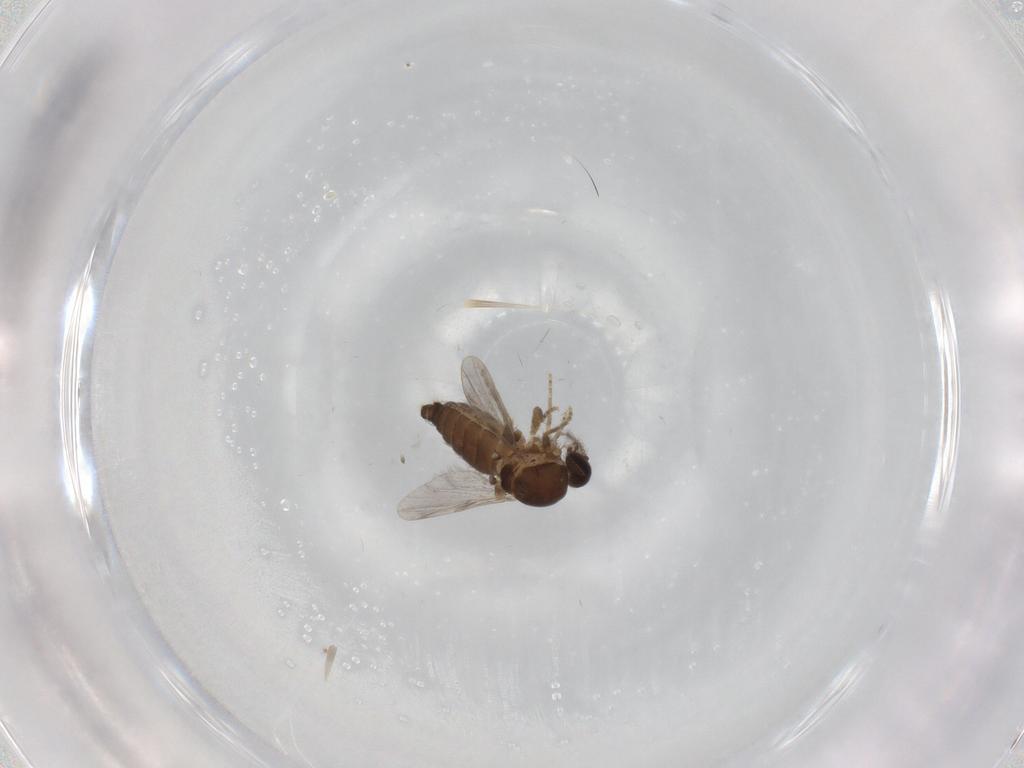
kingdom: Animalia
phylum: Arthropoda
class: Insecta
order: Diptera
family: Ceratopogonidae
